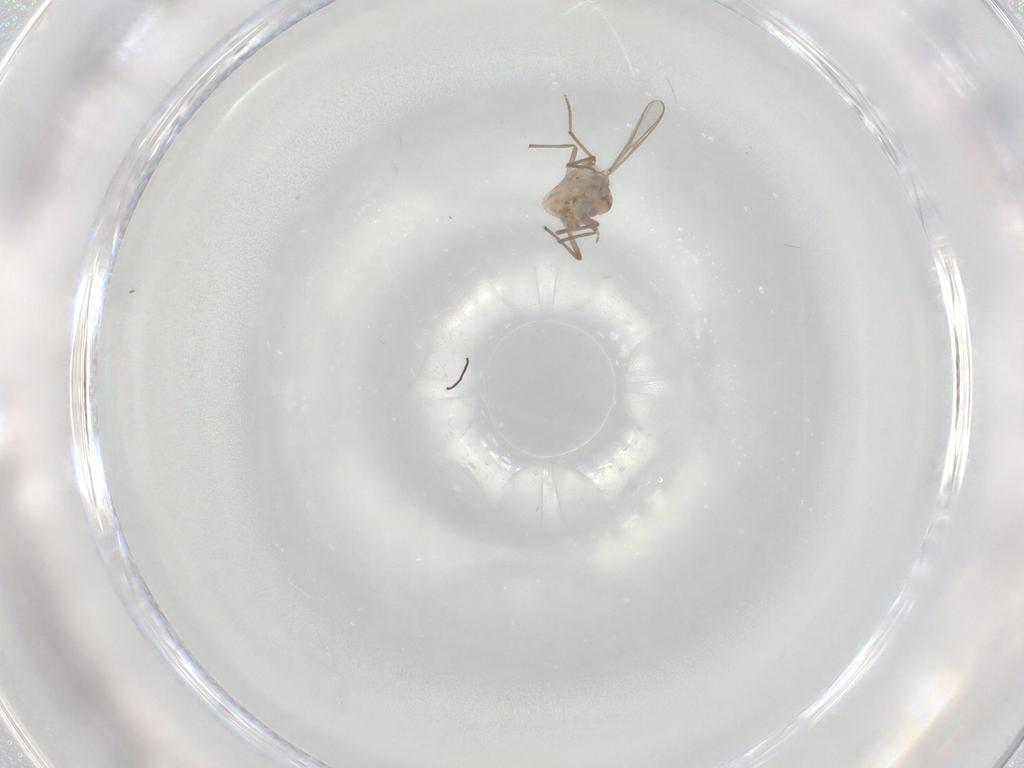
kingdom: Animalia
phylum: Arthropoda
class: Insecta
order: Diptera
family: Chironomidae
